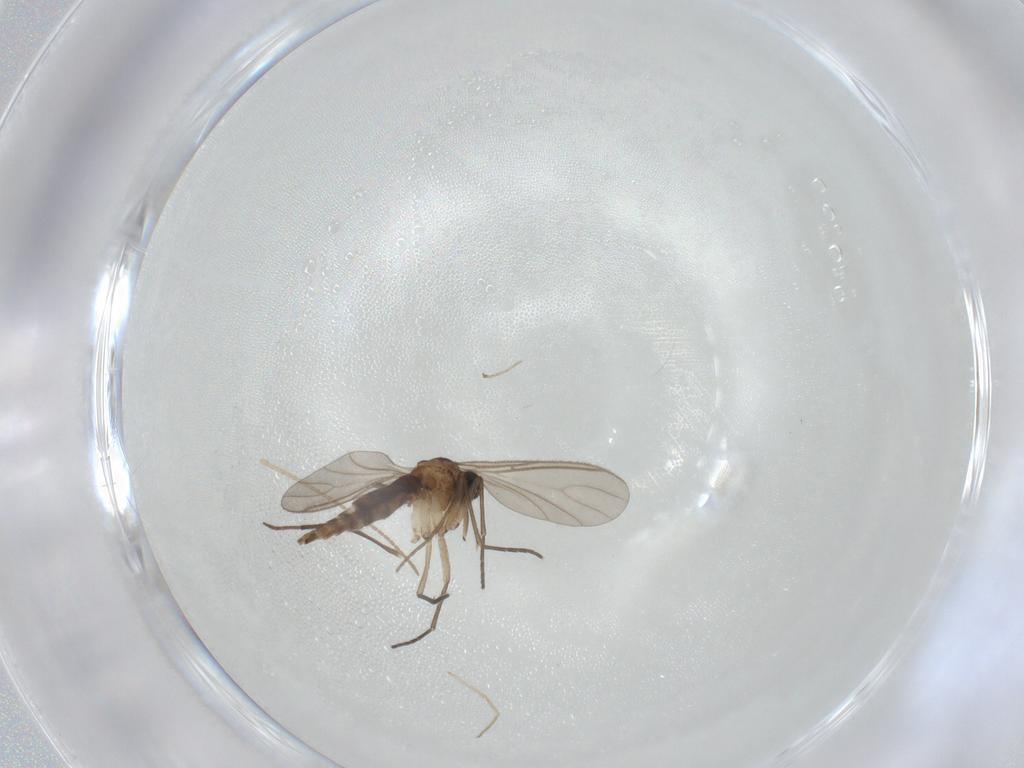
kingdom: Animalia
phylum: Arthropoda
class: Insecta
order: Diptera
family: Sciaridae
